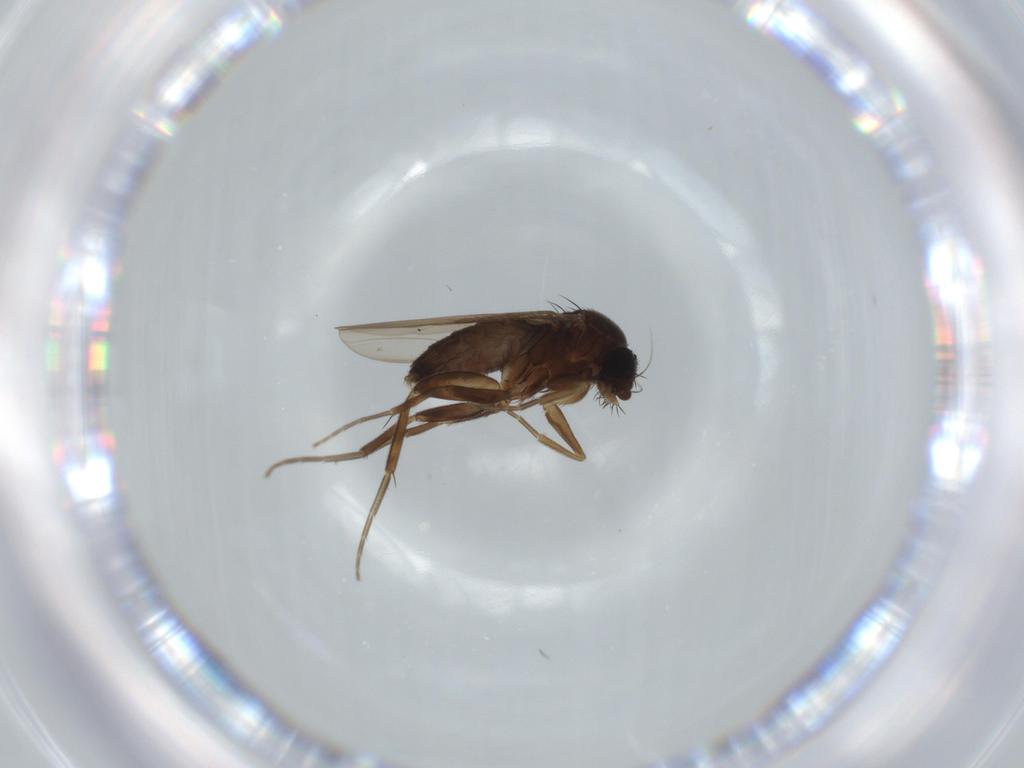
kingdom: Animalia
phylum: Arthropoda
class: Insecta
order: Diptera
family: Phoridae
